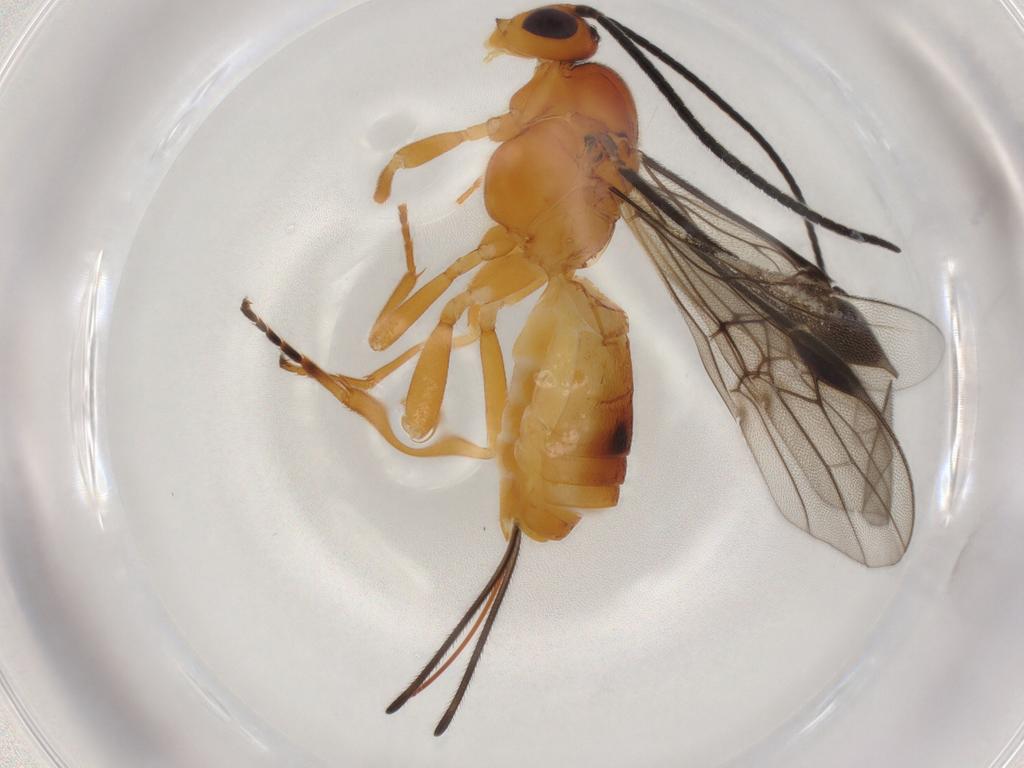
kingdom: Animalia
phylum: Arthropoda
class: Insecta
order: Hymenoptera
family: Braconidae
